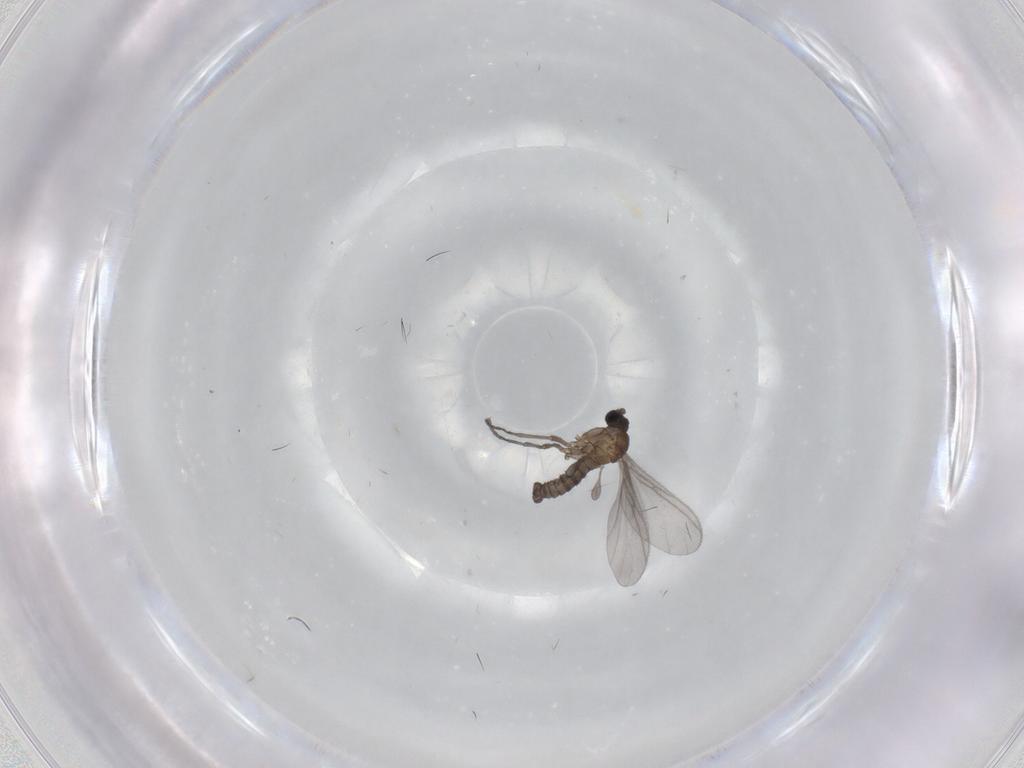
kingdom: Animalia
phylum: Arthropoda
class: Insecta
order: Diptera
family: Sciaridae
